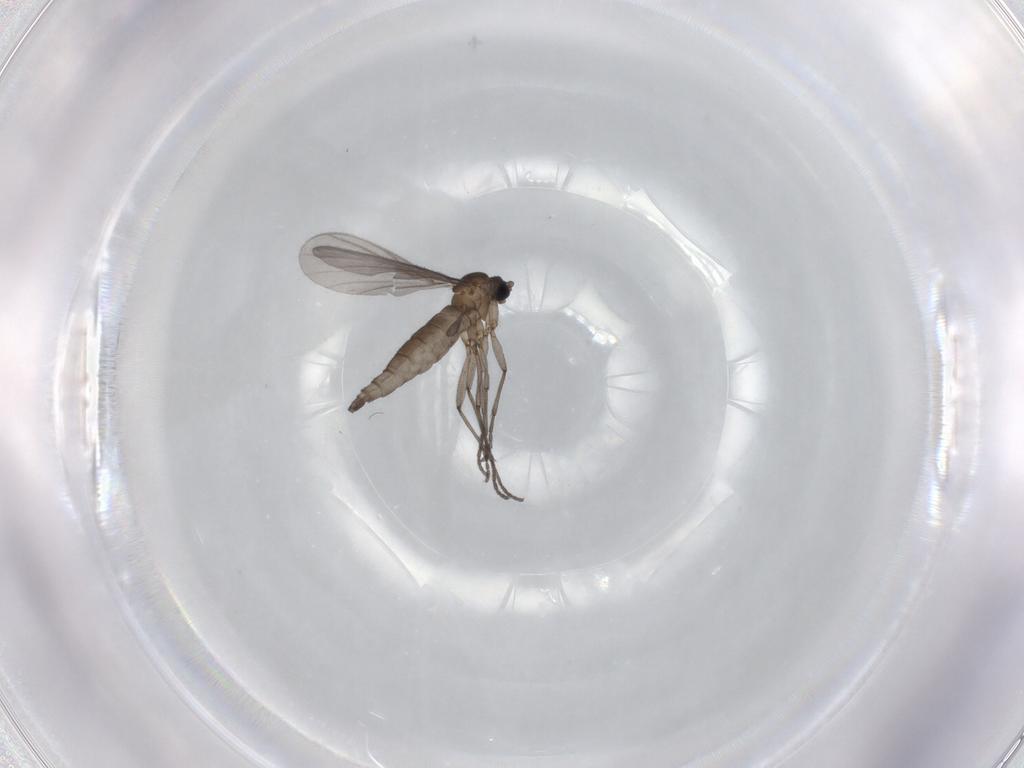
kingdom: Animalia
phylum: Arthropoda
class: Insecta
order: Diptera
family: Sciaridae
